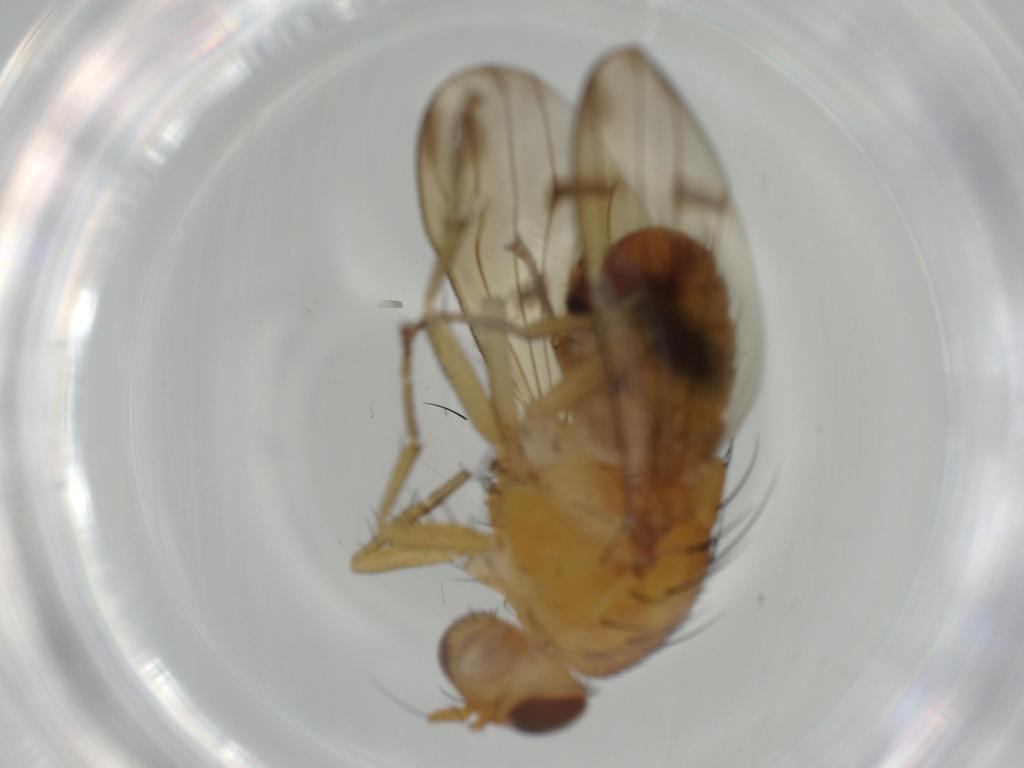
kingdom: Animalia
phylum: Arthropoda
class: Insecta
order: Diptera
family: Lauxaniidae
